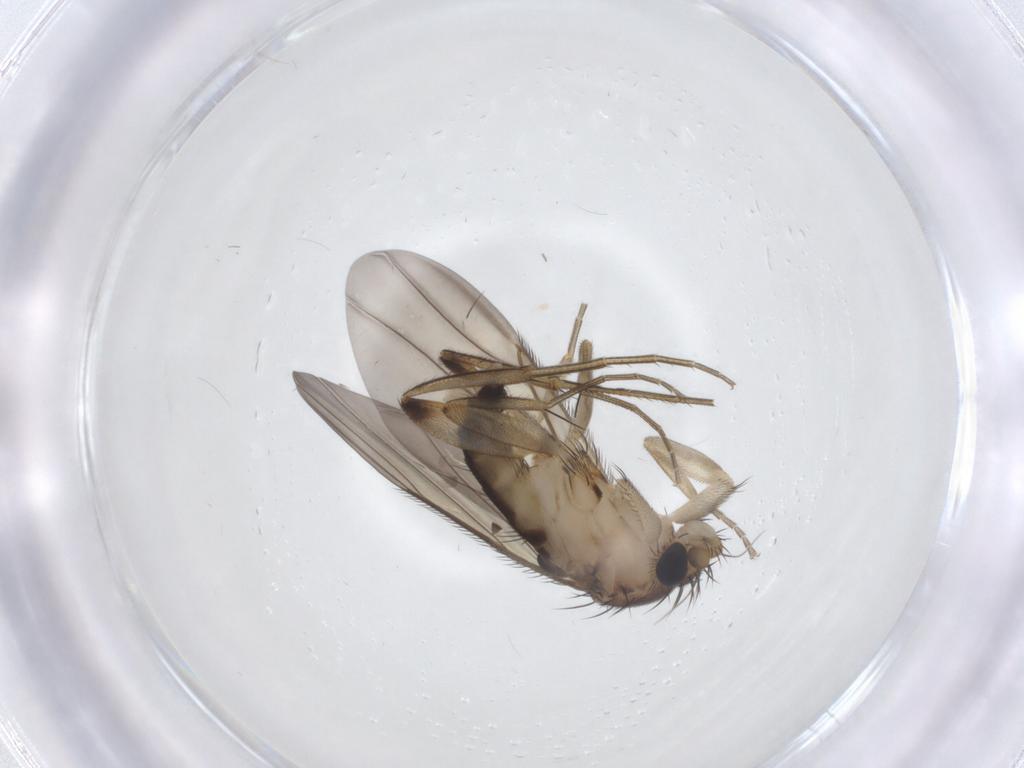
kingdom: Animalia
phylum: Arthropoda
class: Insecta
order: Diptera
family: Phoridae
